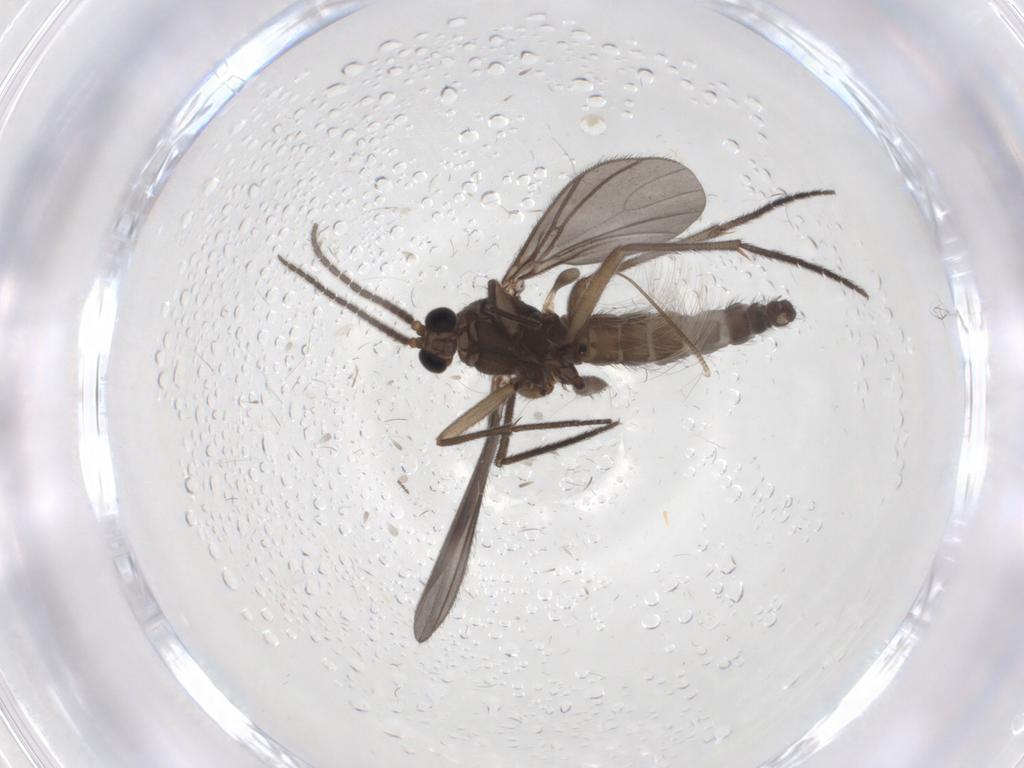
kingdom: Animalia
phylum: Arthropoda
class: Insecta
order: Diptera
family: Sciaridae
